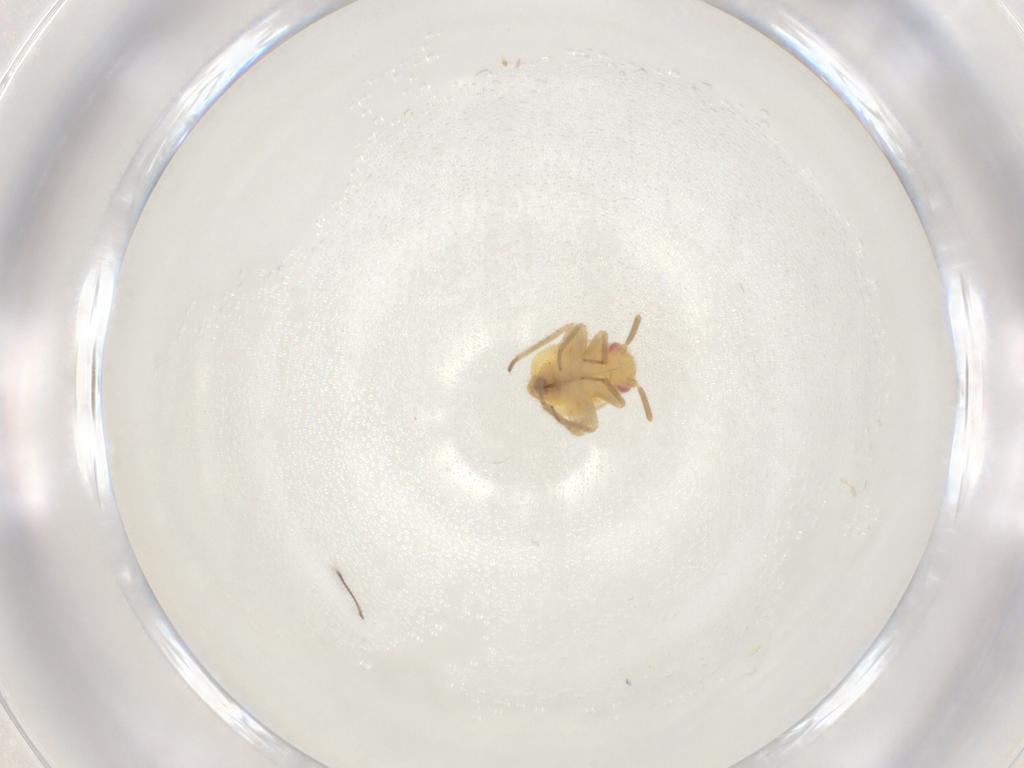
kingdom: Animalia
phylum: Arthropoda
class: Insecta
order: Hemiptera
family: Miridae
